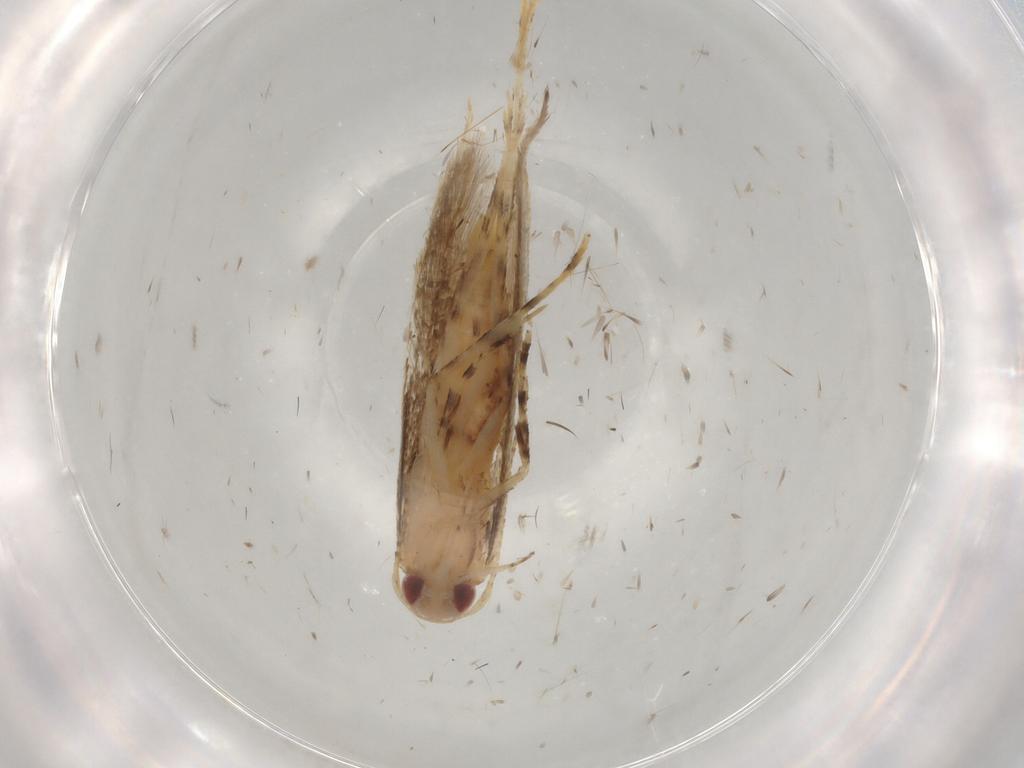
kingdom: Animalia
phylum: Arthropoda
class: Insecta
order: Lepidoptera
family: Oecophoridae
